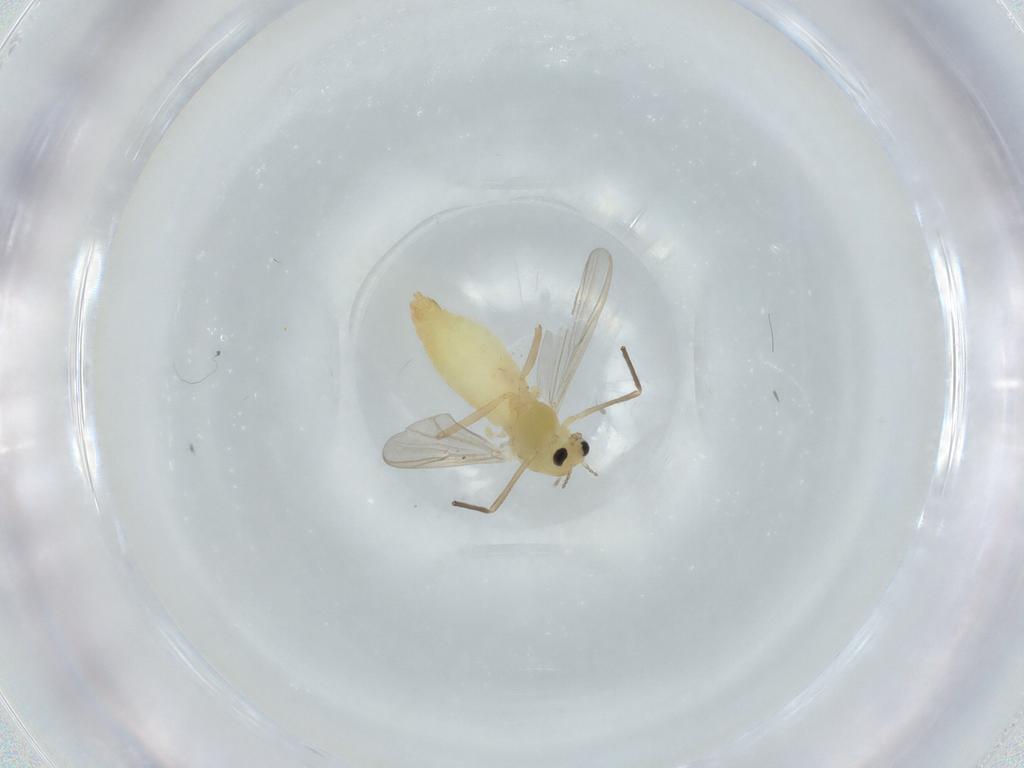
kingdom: Animalia
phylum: Arthropoda
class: Insecta
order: Diptera
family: Chironomidae
